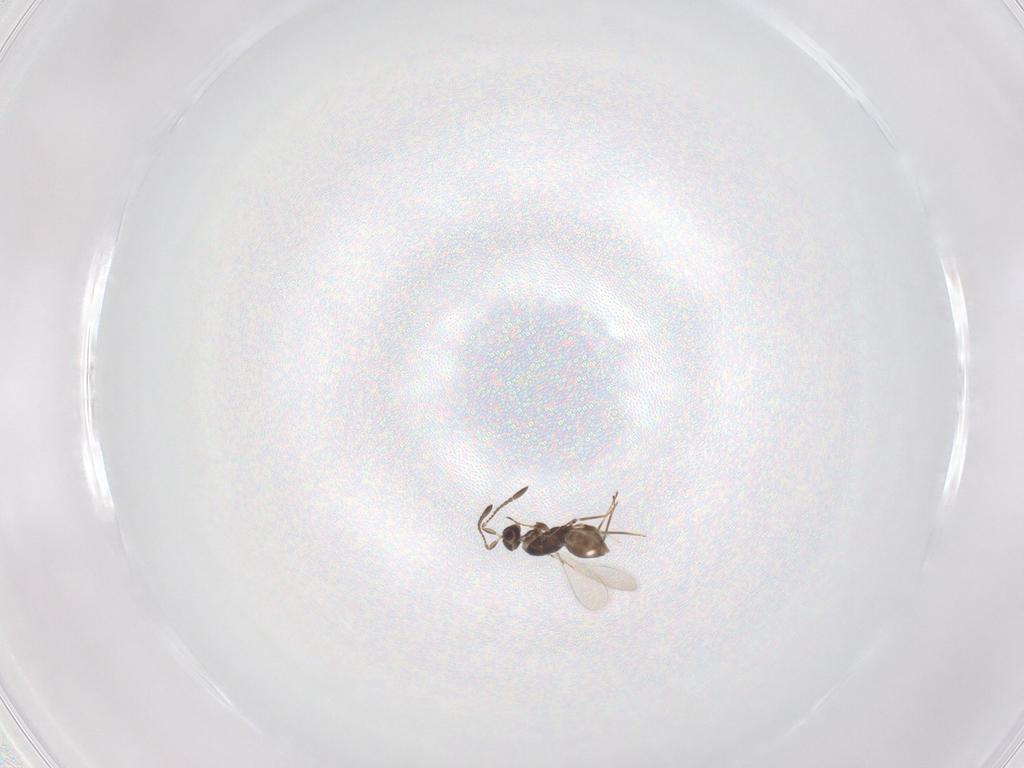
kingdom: Animalia
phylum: Arthropoda
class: Insecta
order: Hymenoptera
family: Mymaridae
